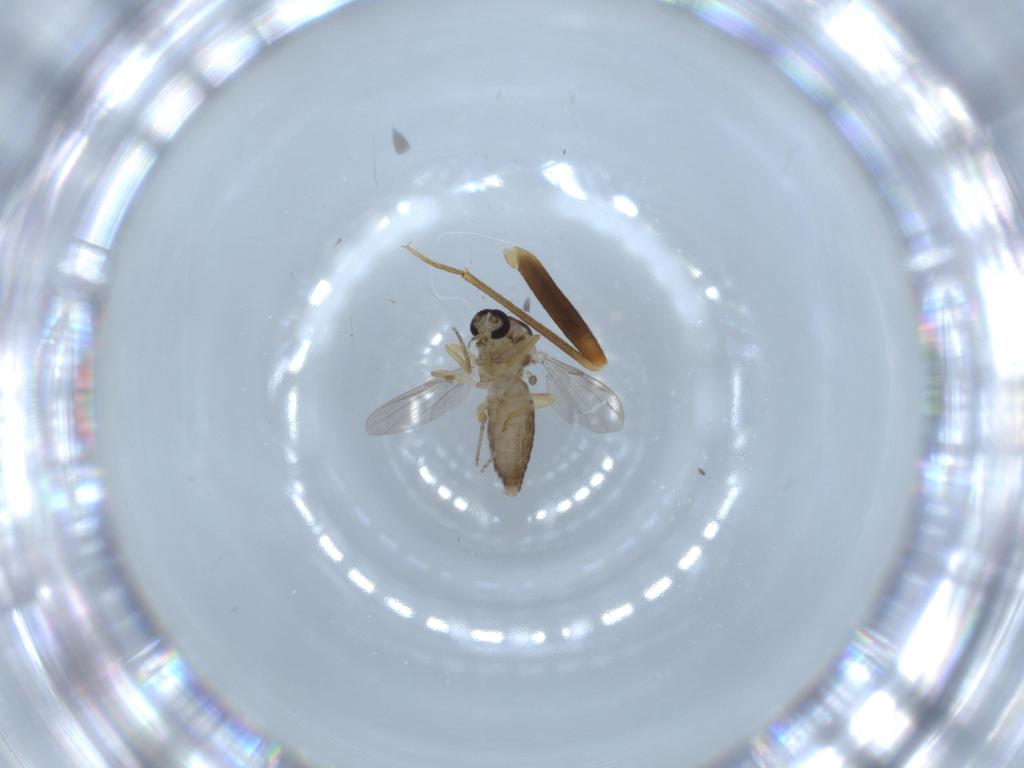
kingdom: Animalia
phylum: Arthropoda
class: Insecta
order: Diptera
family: Ceratopogonidae
